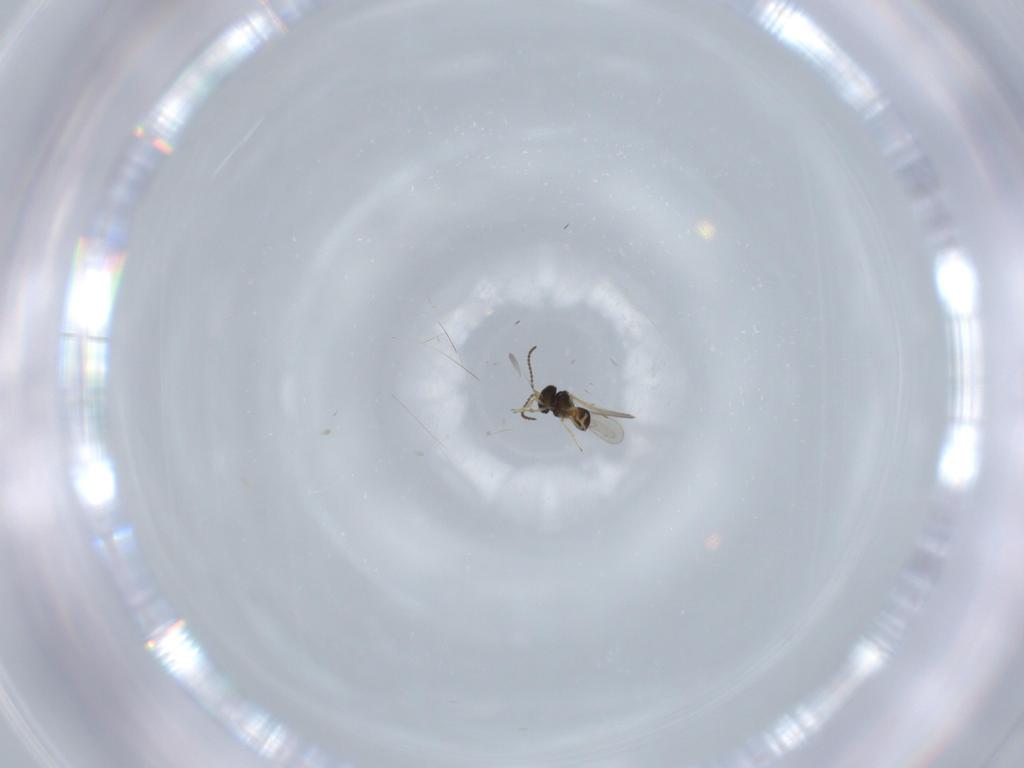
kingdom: Animalia
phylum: Arthropoda
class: Insecta
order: Hymenoptera
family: Scelionidae
